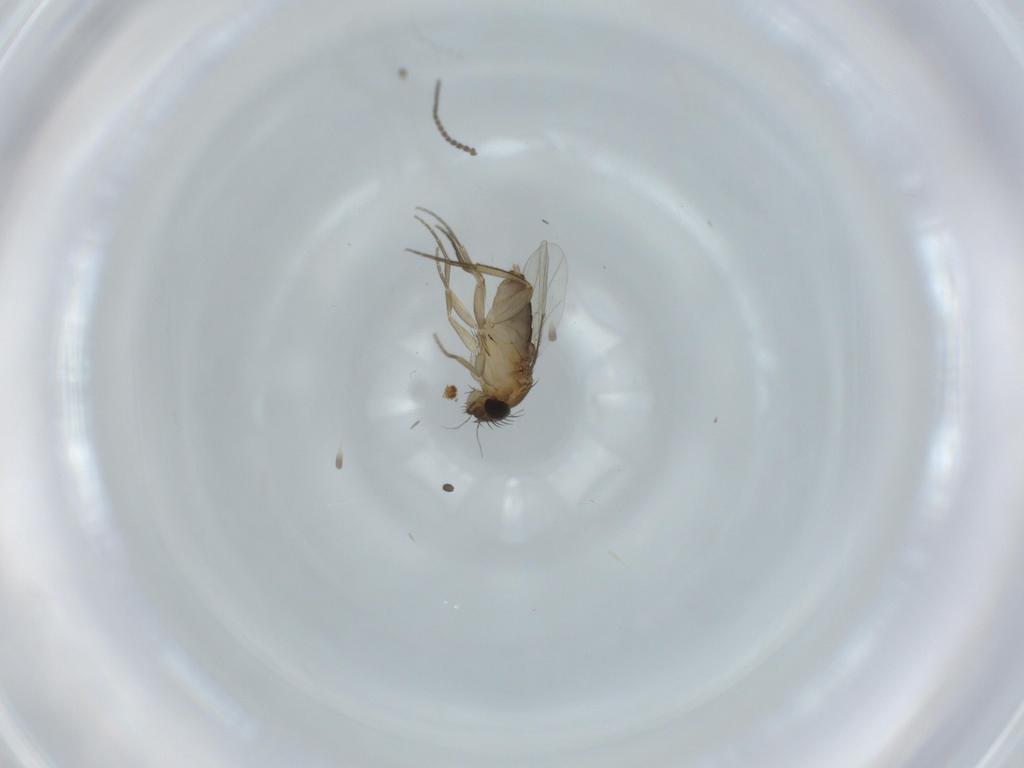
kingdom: Animalia
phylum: Arthropoda
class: Insecta
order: Diptera
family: Phoridae
